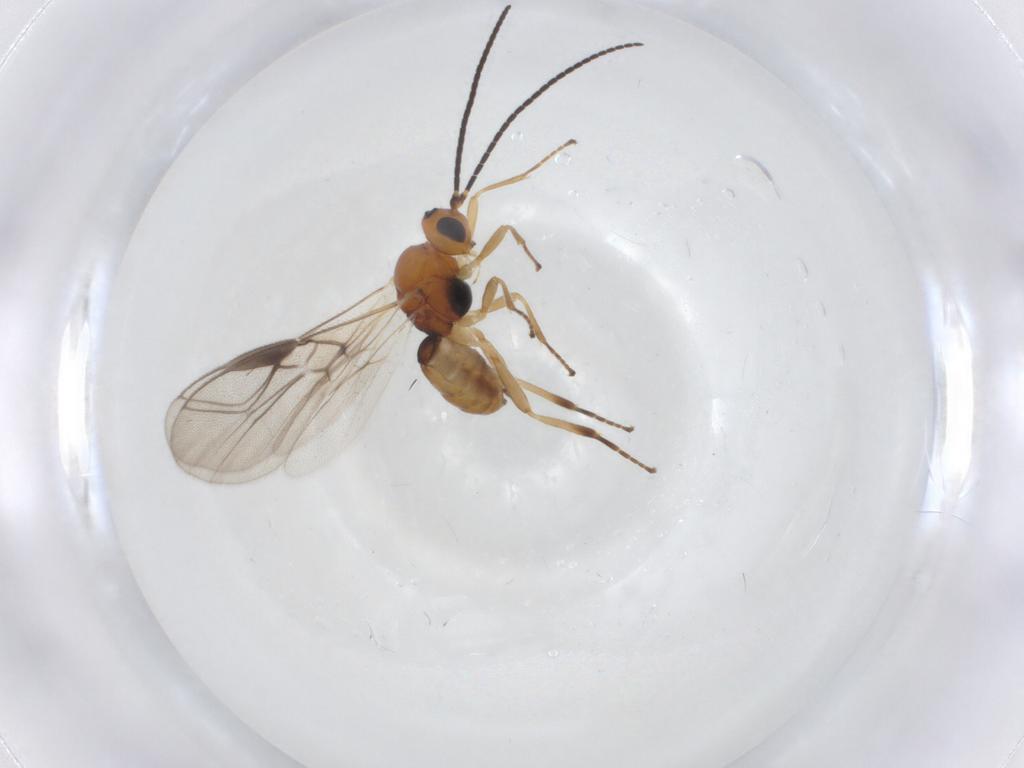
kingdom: Animalia
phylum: Arthropoda
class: Insecta
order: Hymenoptera
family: Braconidae
